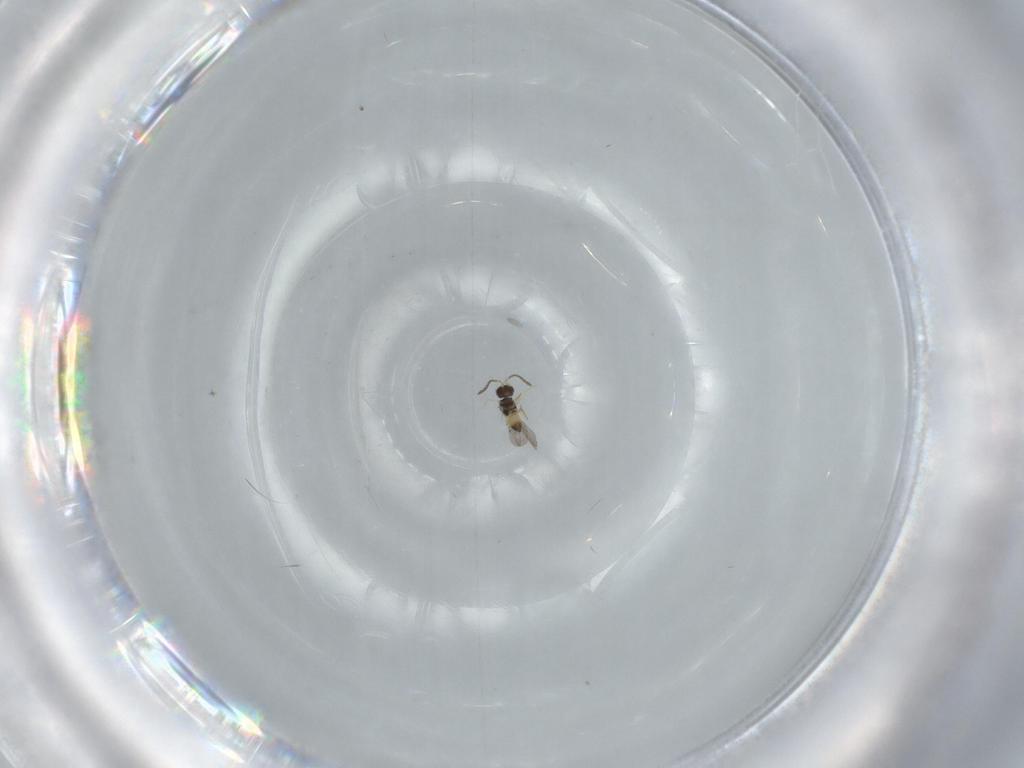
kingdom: Animalia
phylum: Arthropoda
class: Insecta
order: Hymenoptera
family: Aphelinidae
